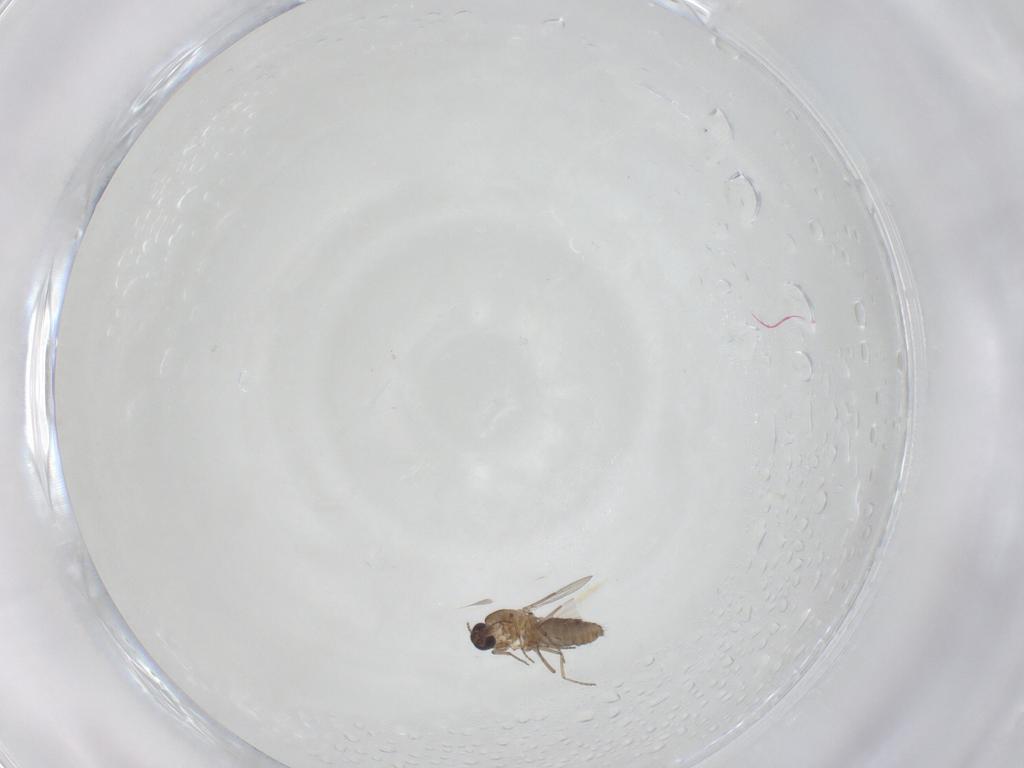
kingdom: Animalia
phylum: Arthropoda
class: Insecta
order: Diptera
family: Ceratopogonidae
